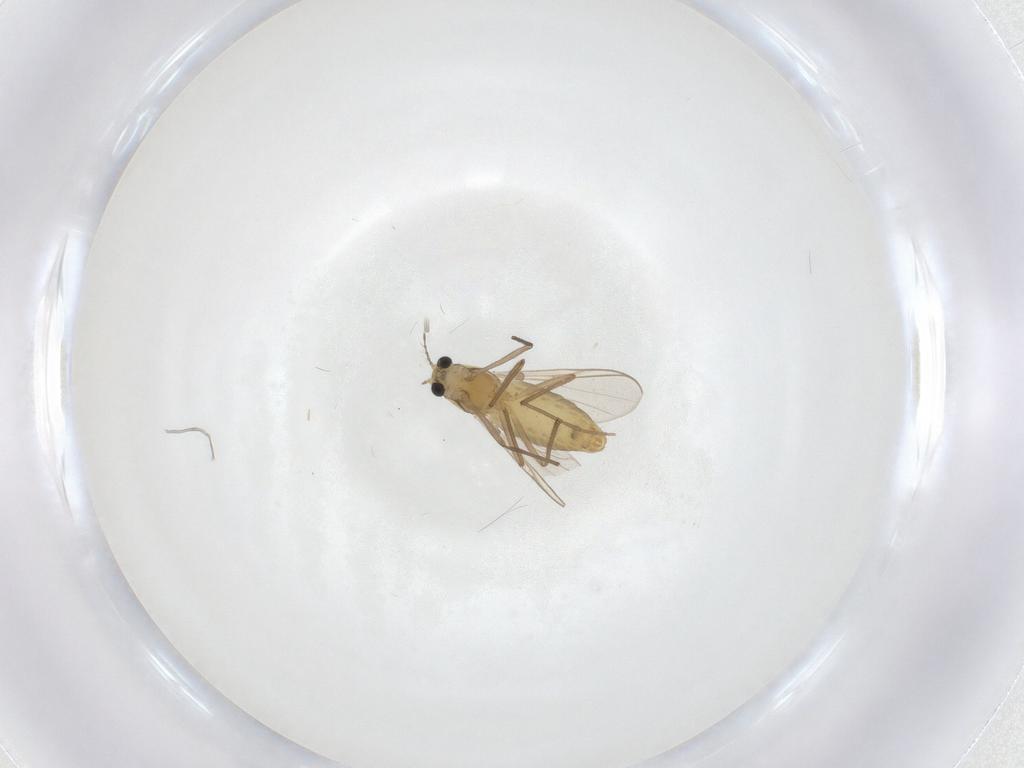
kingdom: Animalia
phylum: Arthropoda
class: Insecta
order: Diptera
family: Chironomidae
